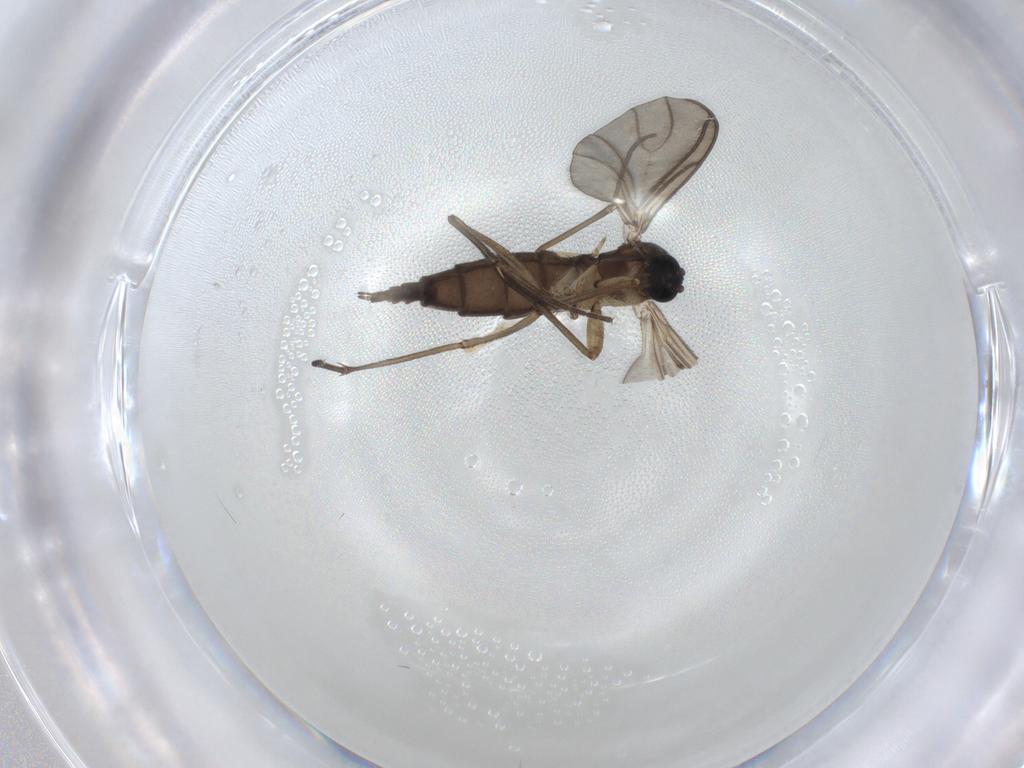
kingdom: Animalia
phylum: Arthropoda
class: Insecta
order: Diptera
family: Sciaridae
